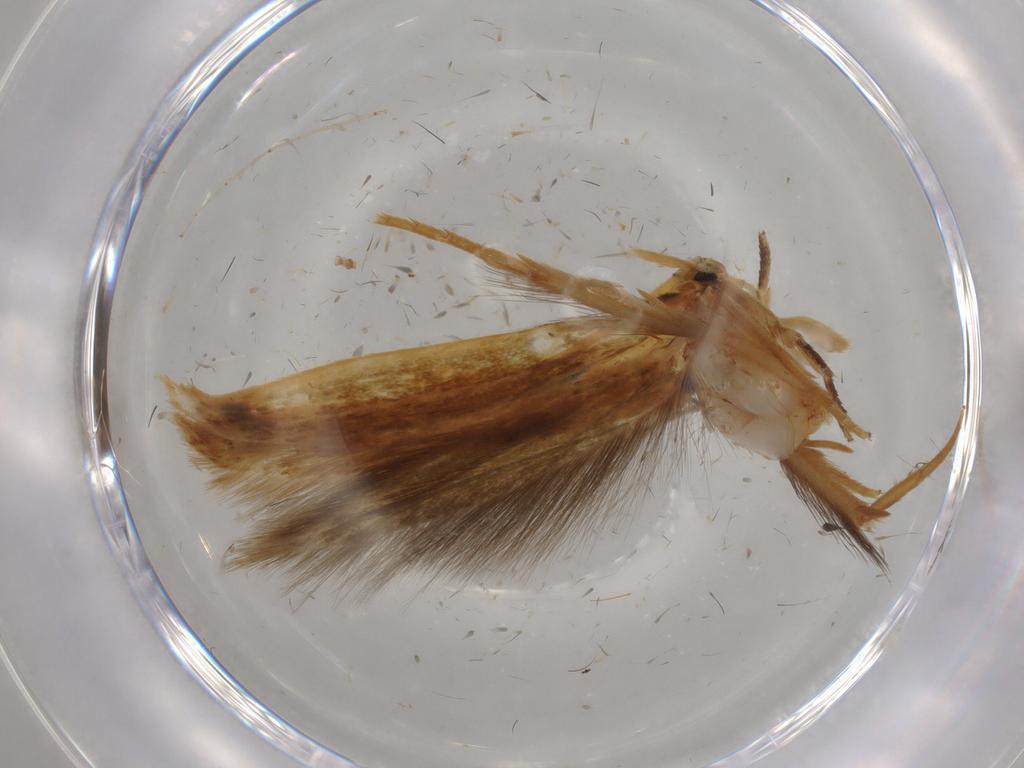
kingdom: Animalia
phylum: Arthropoda
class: Insecta
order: Lepidoptera
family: Tineidae
